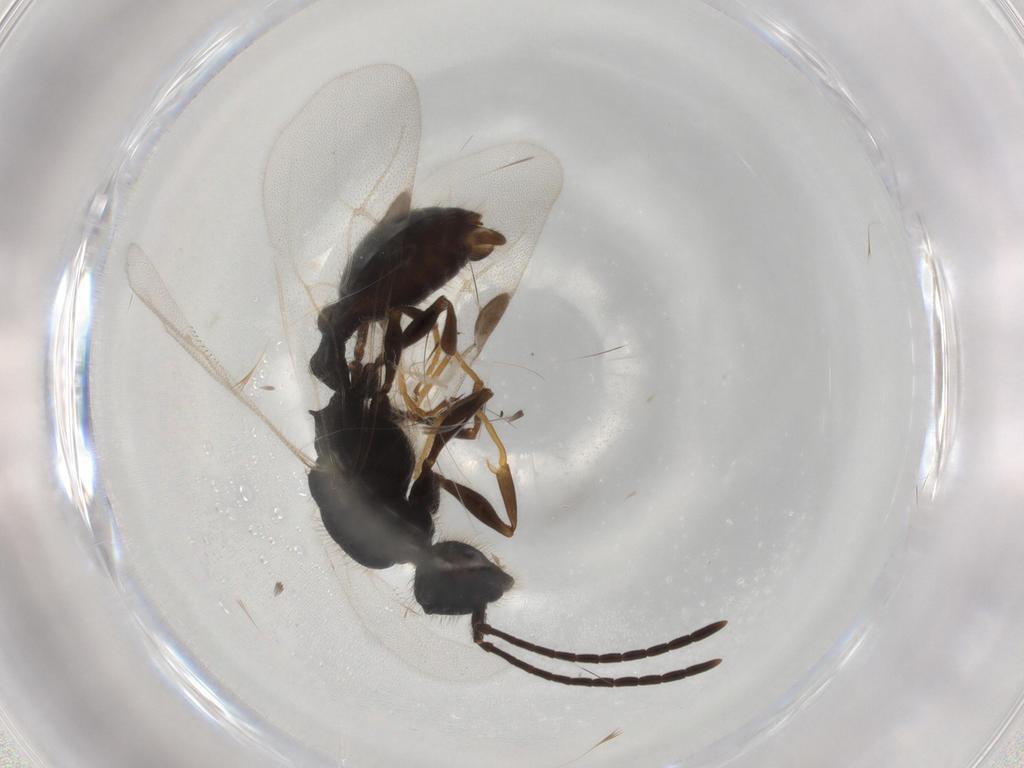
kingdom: Animalia
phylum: Arthropoda
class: Insecta
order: Hymenoptera
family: Formicidae
